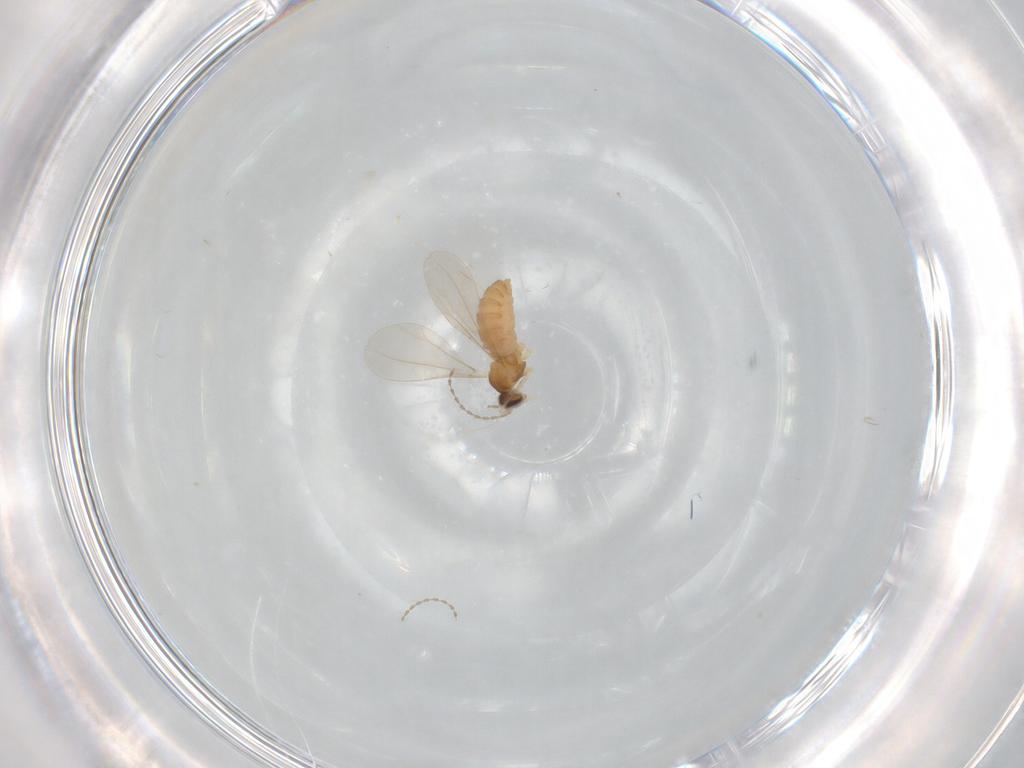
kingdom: Animalia
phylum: Arthropoda
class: Insecta
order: Diptera
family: Cecidomyiidae
